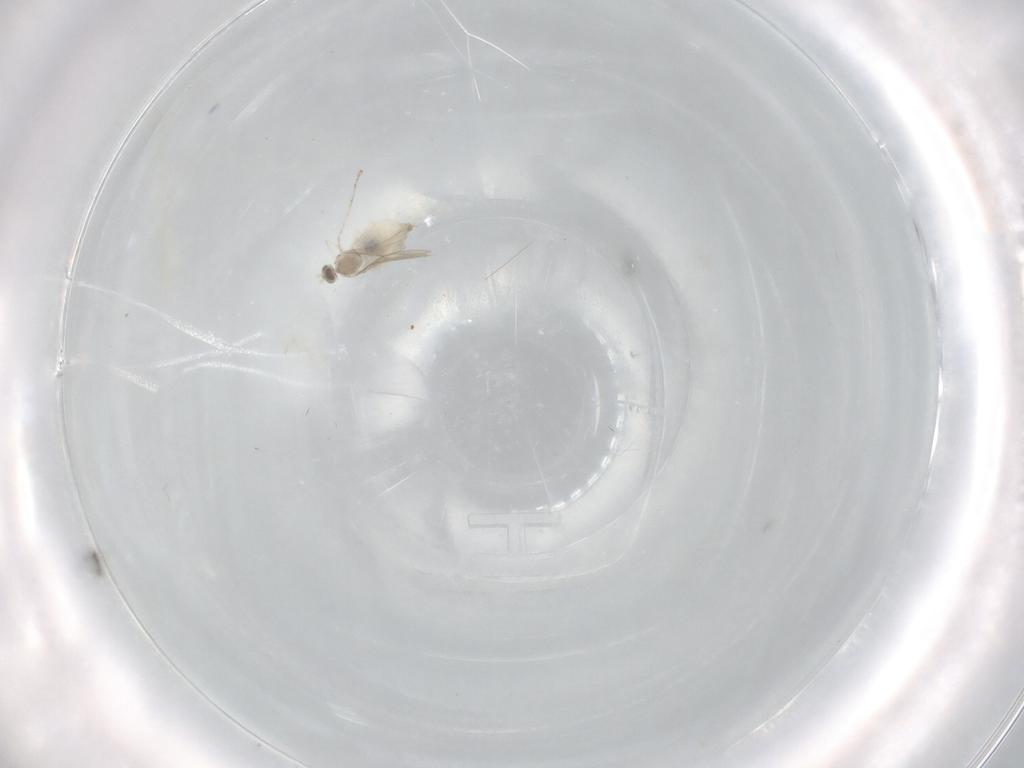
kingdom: Animalia
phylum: Arthropoda
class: Insecta
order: Diptera
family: Cecidomyiidae
